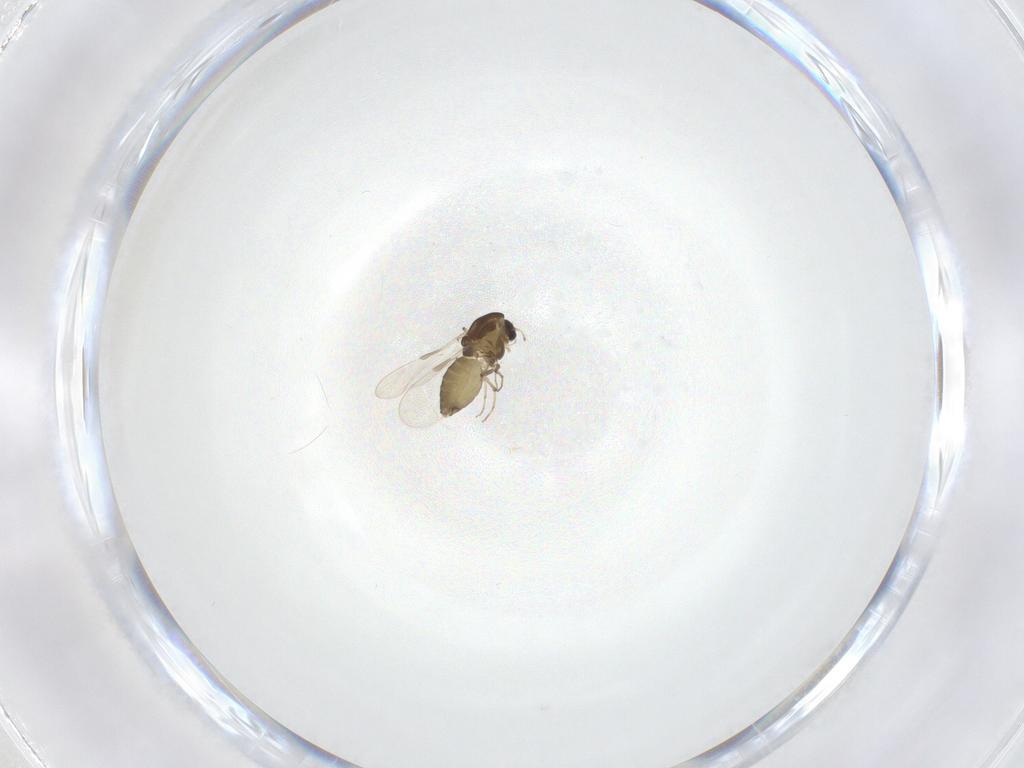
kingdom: Animalia
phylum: Arthropoda
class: Insecta
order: Diptera
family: Chironomidae
